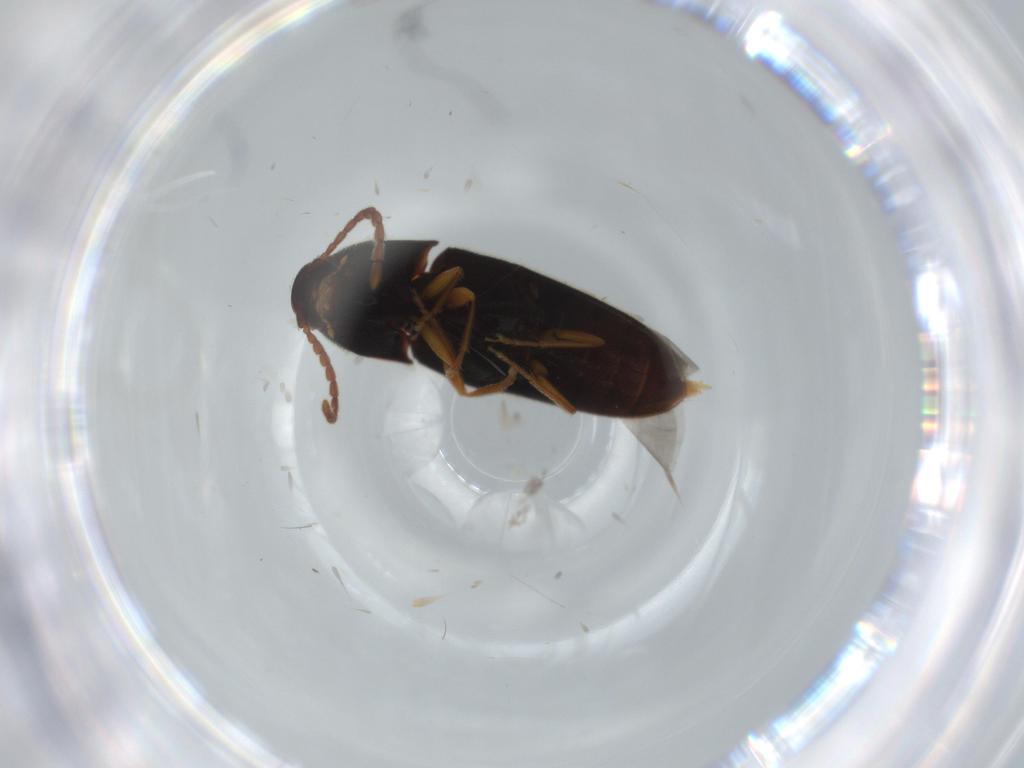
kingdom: Animalia
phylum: Arthropoda
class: Insecta
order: Coleoptera
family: Elateridae
